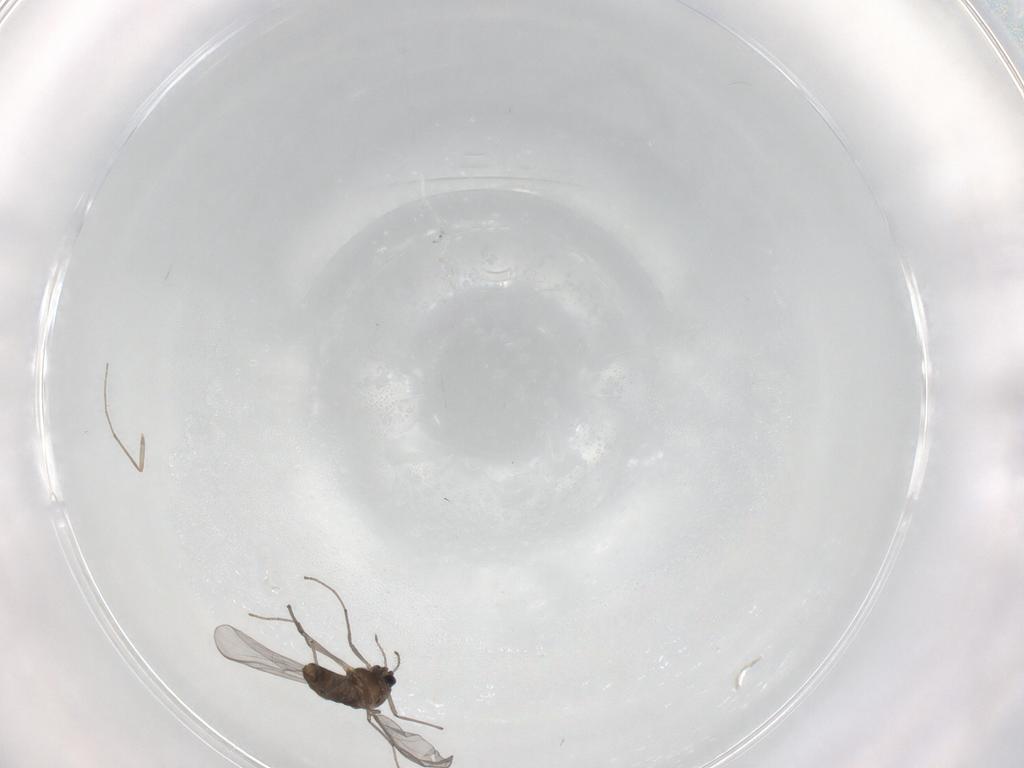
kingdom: Animalia
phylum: Arthropoda
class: Insecta
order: Diptera
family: Chironomidae
